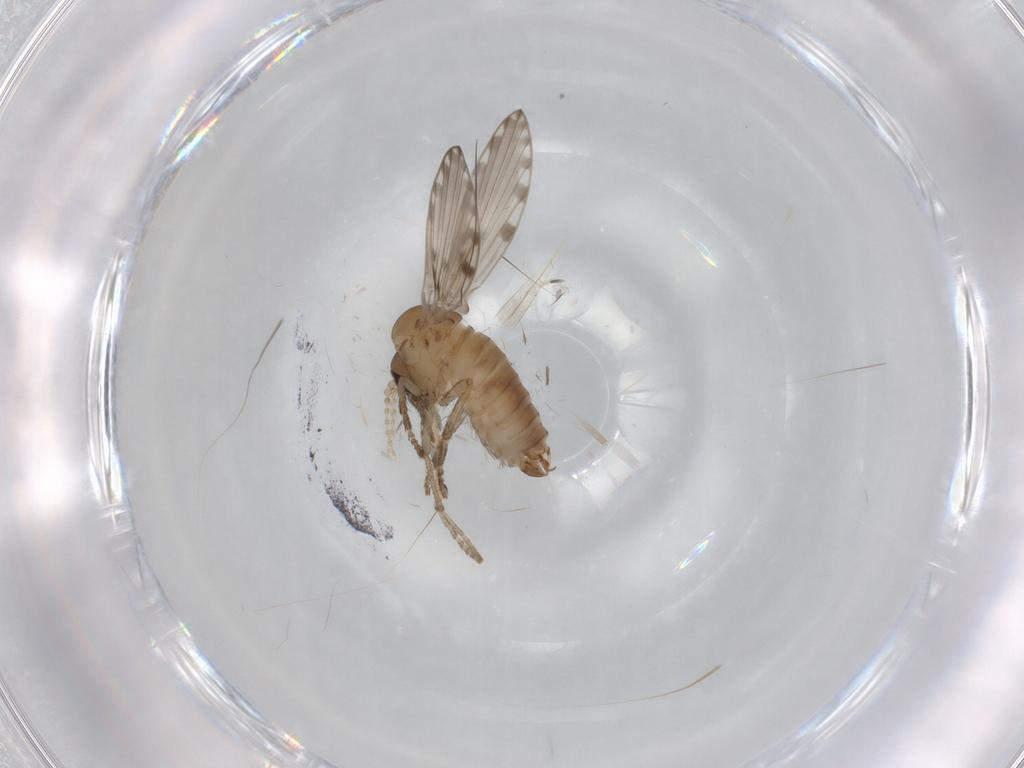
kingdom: Animalia
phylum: Arthropoda
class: Insecta
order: Diptera
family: Psychodidae
